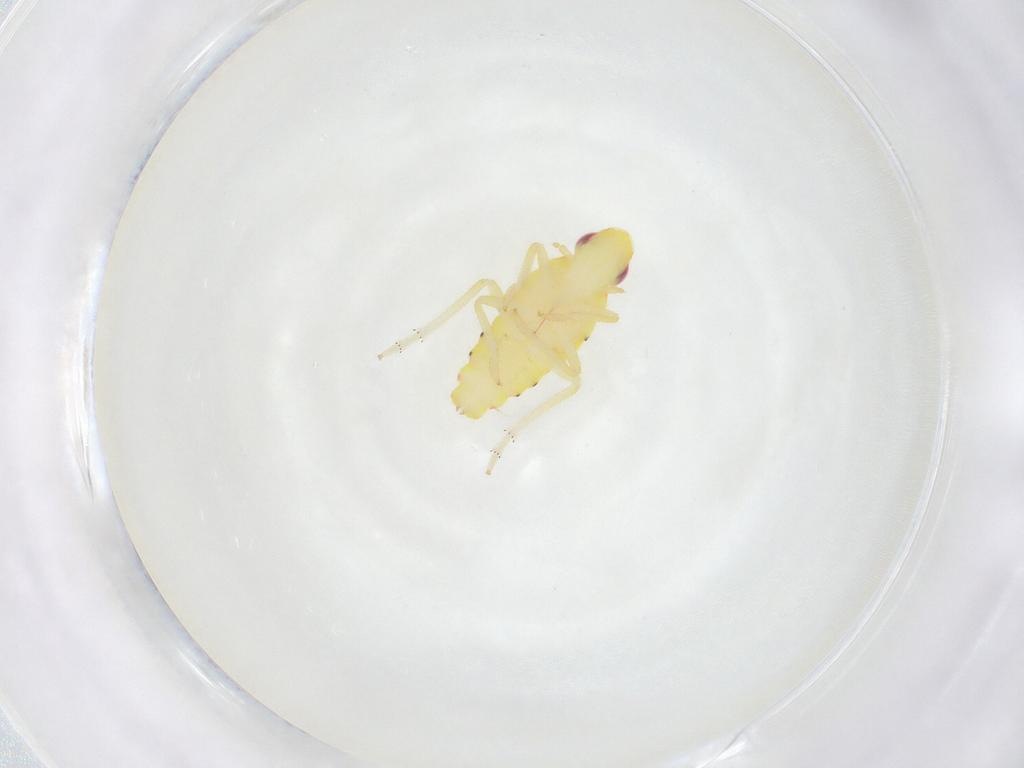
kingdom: Animalia
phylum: Arthropoda
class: Insecta
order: Hemiptera
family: Tropiduchidae
